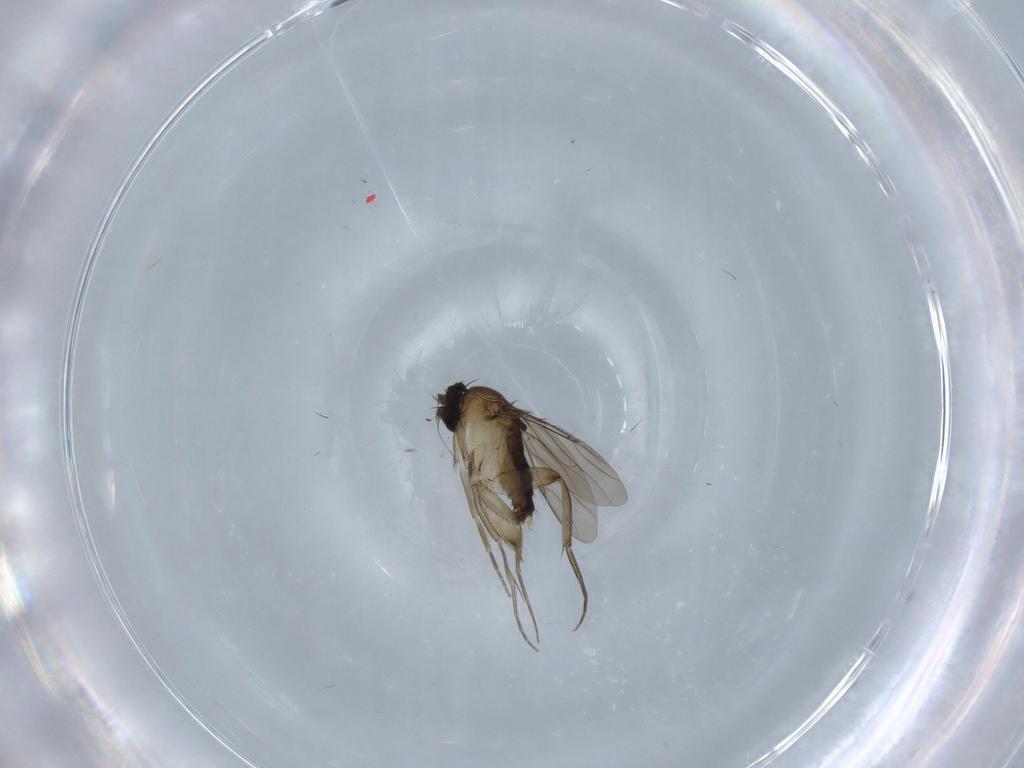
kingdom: Animalia
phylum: Arthropoda
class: Insecta
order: Diptera
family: Phoridae
